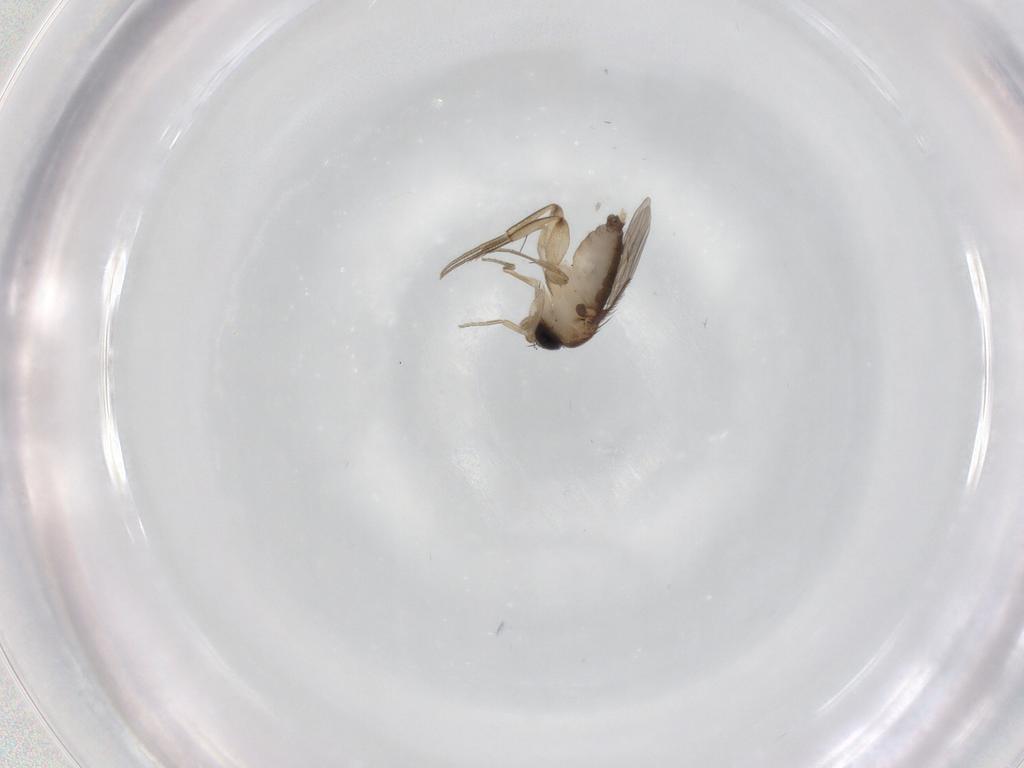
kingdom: Animalia
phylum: Arthropoda
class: Insecta
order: Diptera
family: Phoridae
